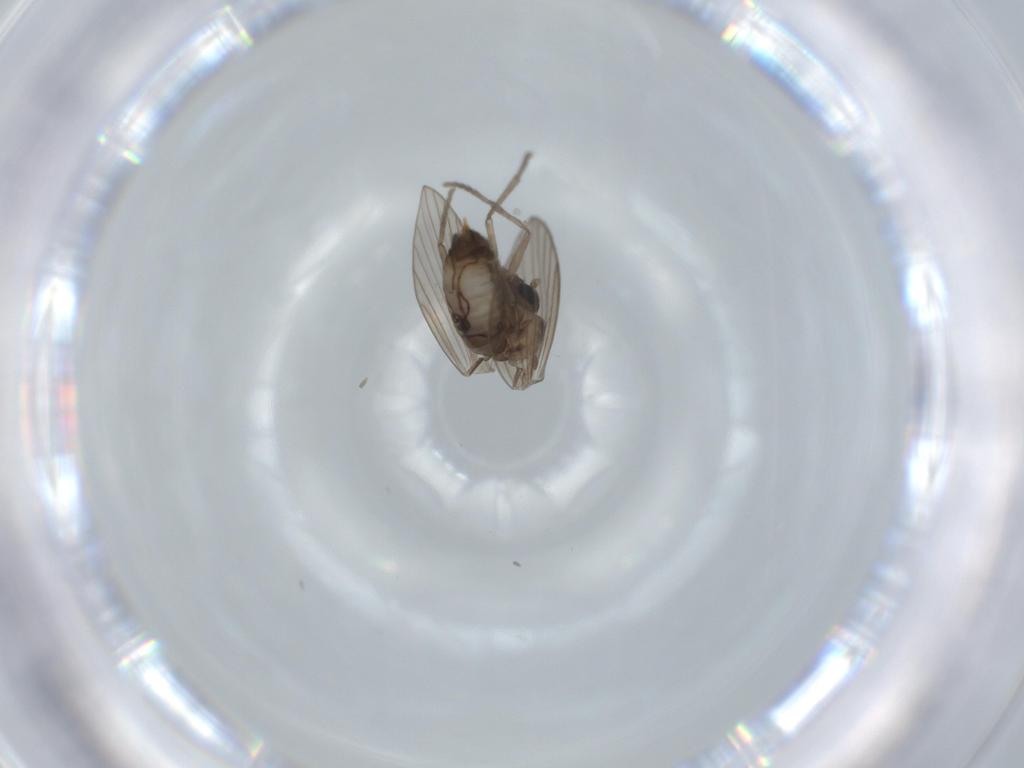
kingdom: Animalia
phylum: Arthropoda
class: Insecta
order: Diptera
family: Psychodidae
